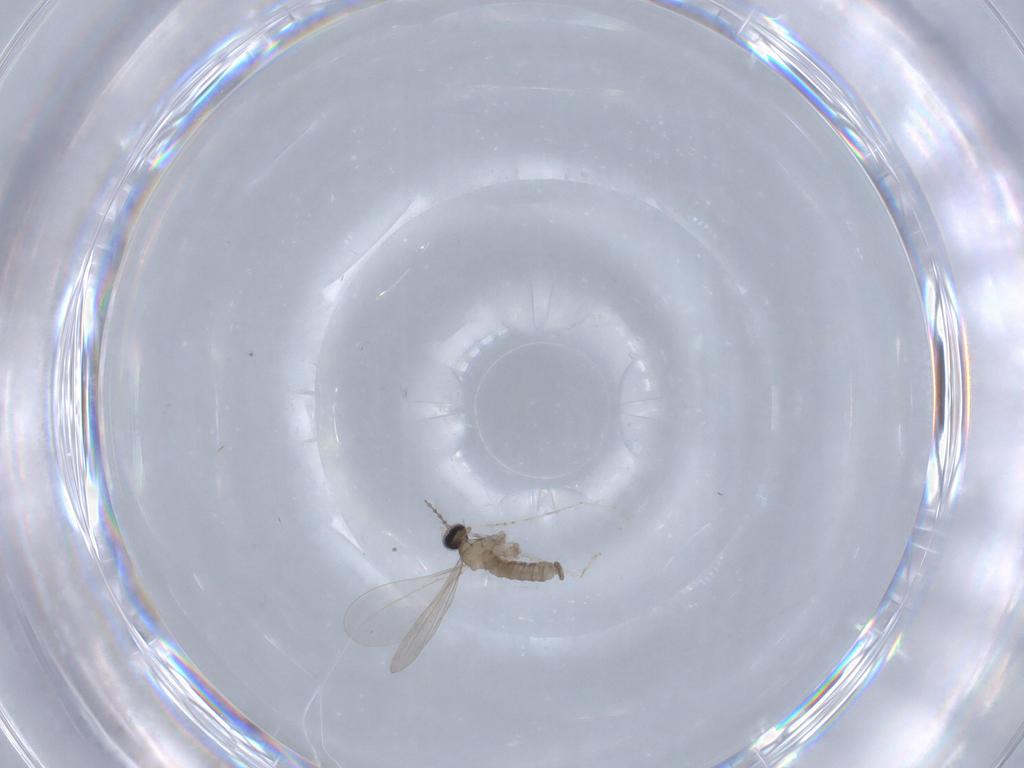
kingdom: Animalia
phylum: Arthropoda
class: Insecta
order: Diptera
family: Cecidomyiidae
